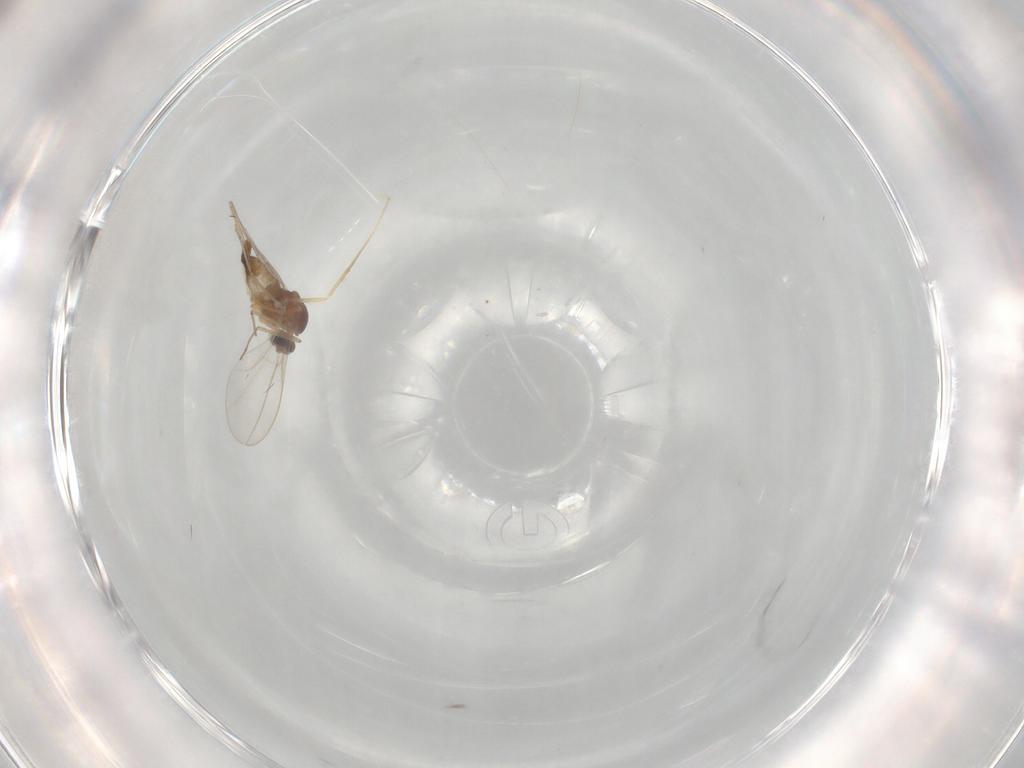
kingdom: Animalia
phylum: Arthropoda
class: Insecta
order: Diptera
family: Cecidomyiidae
